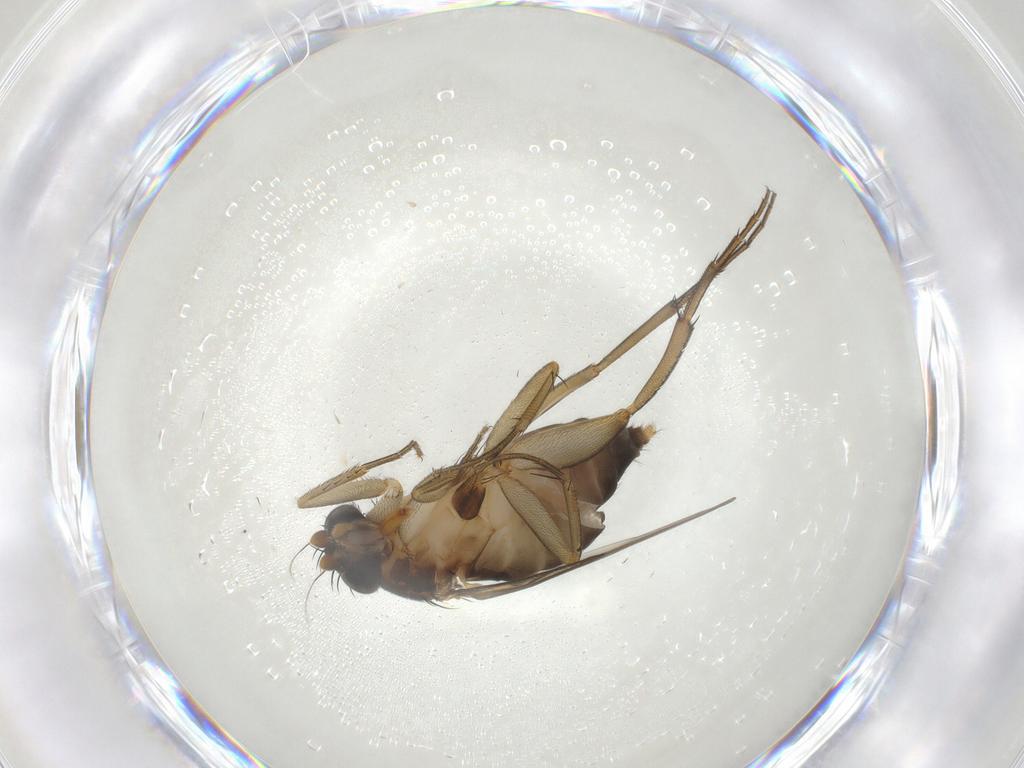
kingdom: Animalia
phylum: Arthropoda
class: Insecta
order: Diptera
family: Phoridae
